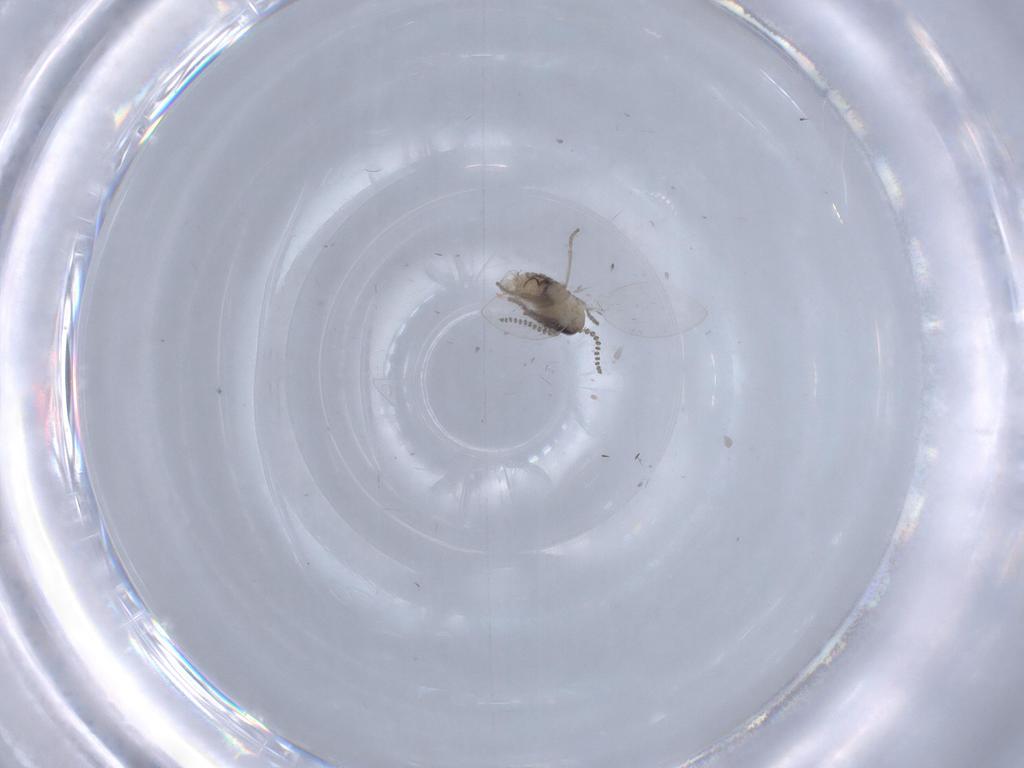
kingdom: Animalia
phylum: Arthropoda
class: Insecta
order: Diptera
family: Psychodidae
